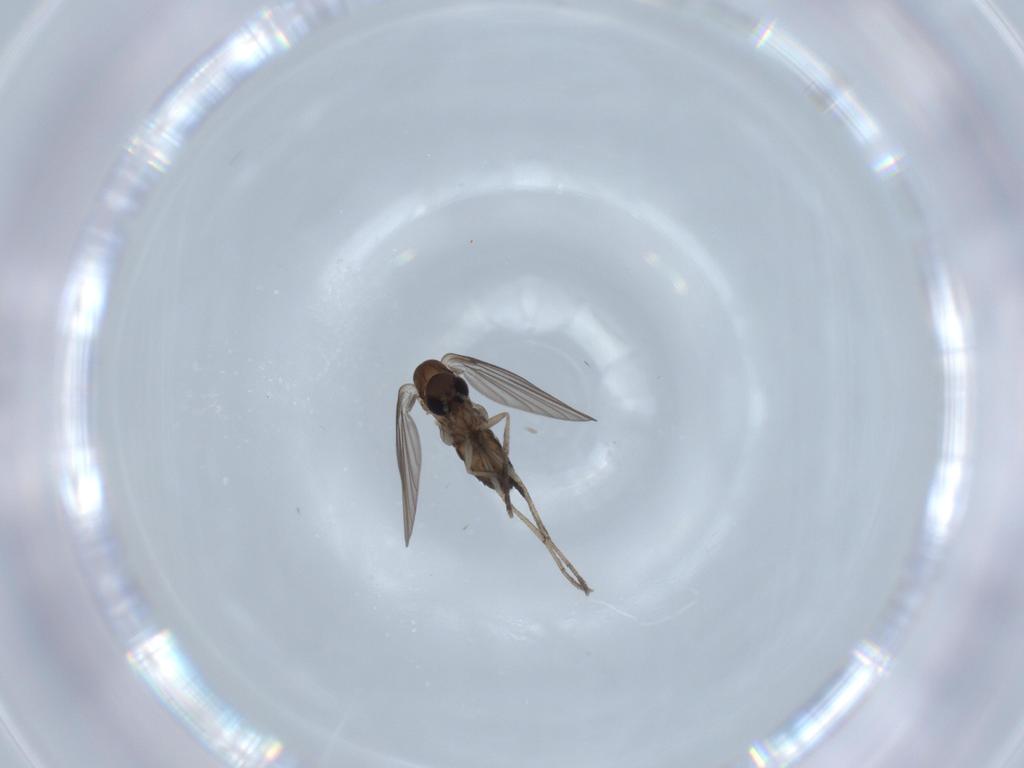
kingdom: Animalia
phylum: Arthropoda
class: Insecta
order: Diptera
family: Psychodidae
